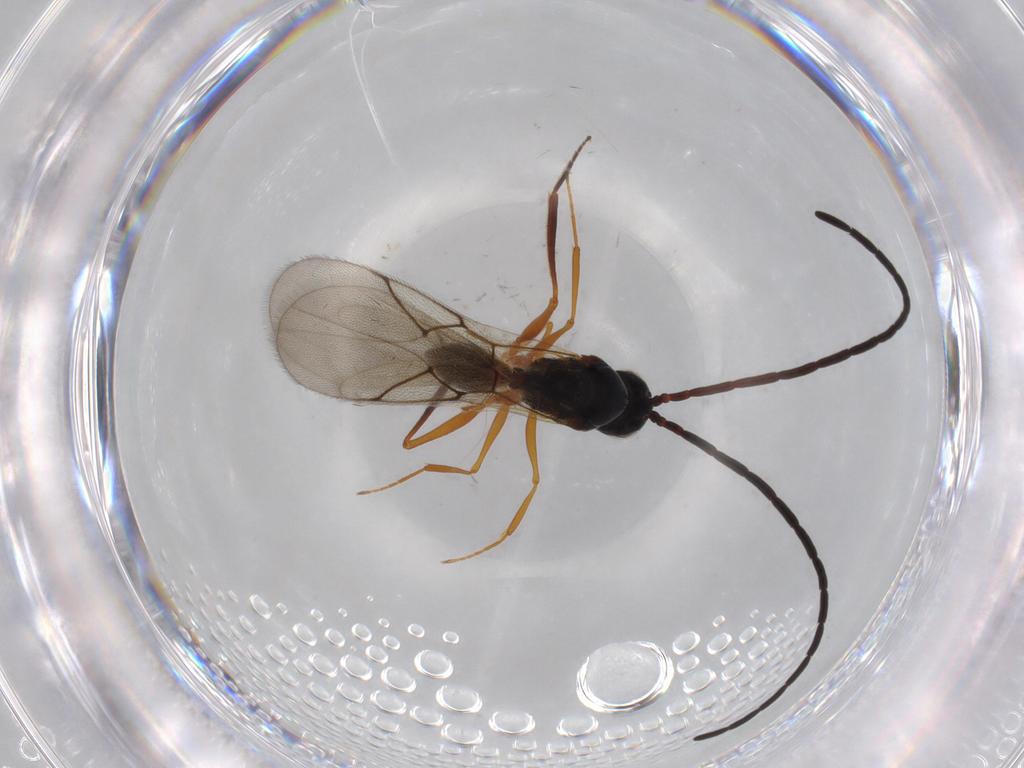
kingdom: Animalia
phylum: Arthropoda
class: Insecta
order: Hymenoptera
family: Figitidae
